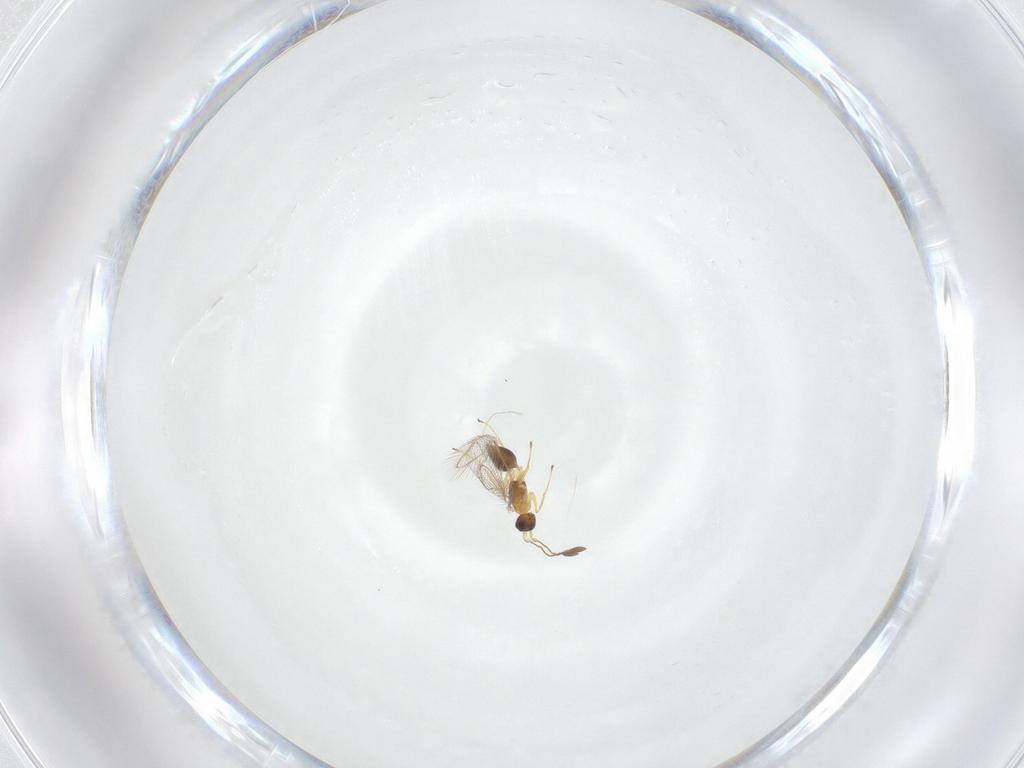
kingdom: Animalia
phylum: Arthropoda
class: Insecta
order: Hymenoptera
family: Mymaridae
